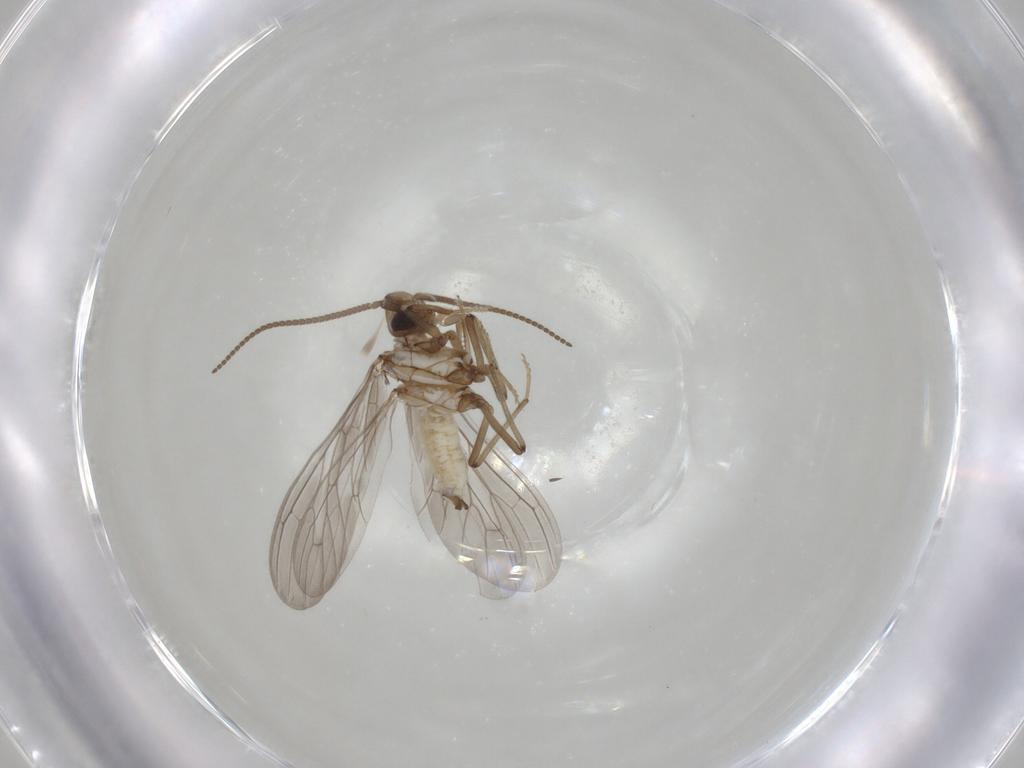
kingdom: Animalia
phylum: Arthropoda
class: Insecta
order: Neuroptera
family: Coniopterygidae
